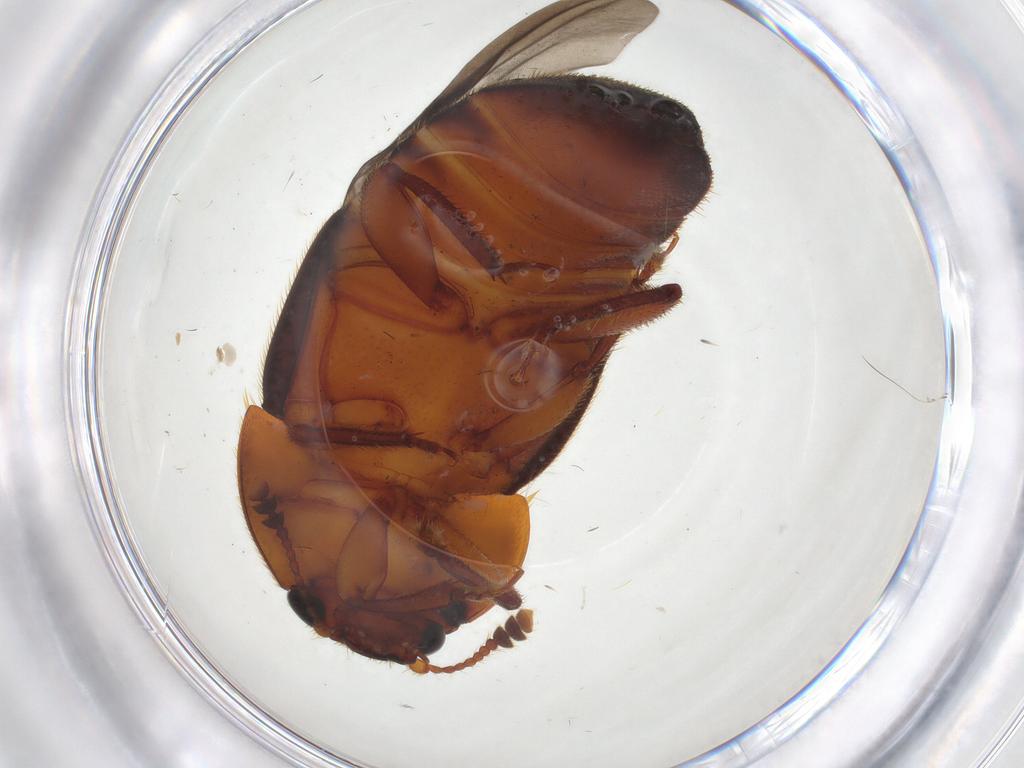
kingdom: Animalia
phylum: Arthropoda
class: Insecta
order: Coleoptera
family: Nitidulidae
